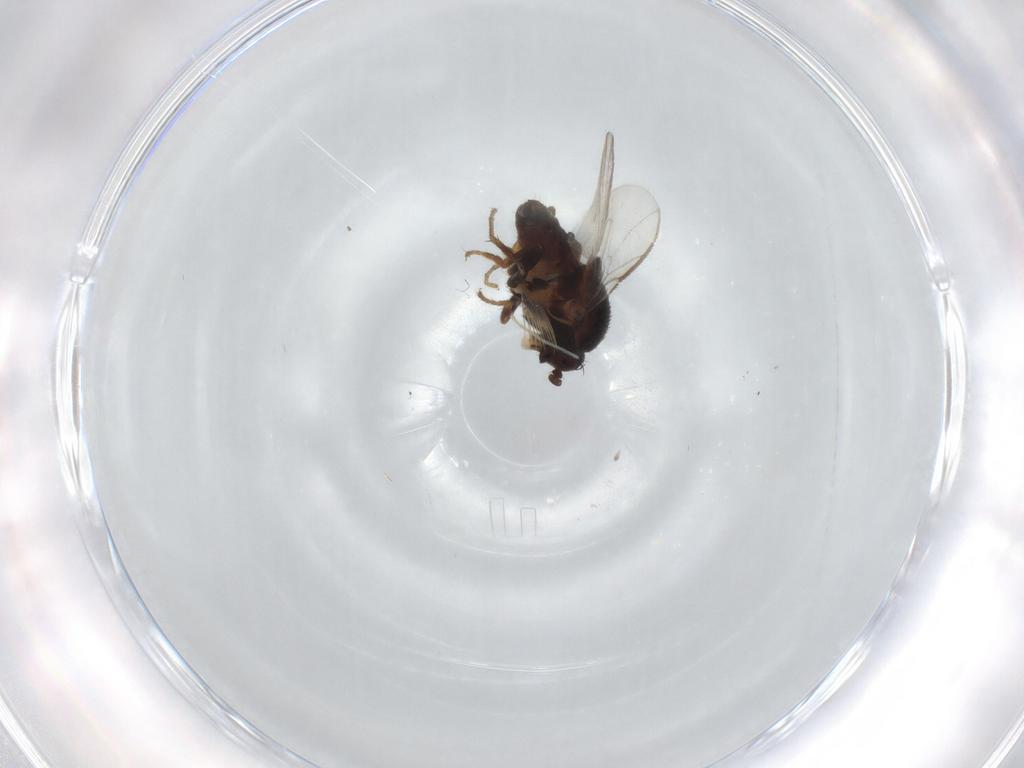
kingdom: Animalia
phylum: Arthropoda
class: Insecta
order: Diptera
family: Sphaeroceridae
